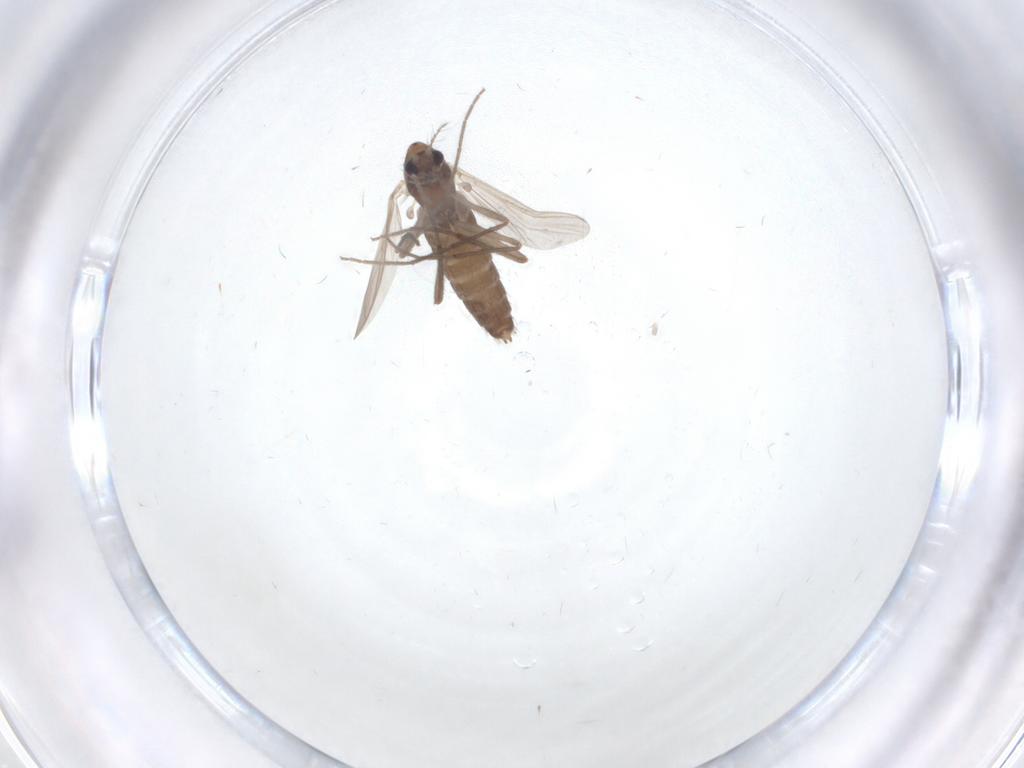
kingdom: Animalia
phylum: Arthropoda
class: Insecta
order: Diptera
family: Chironomidae
